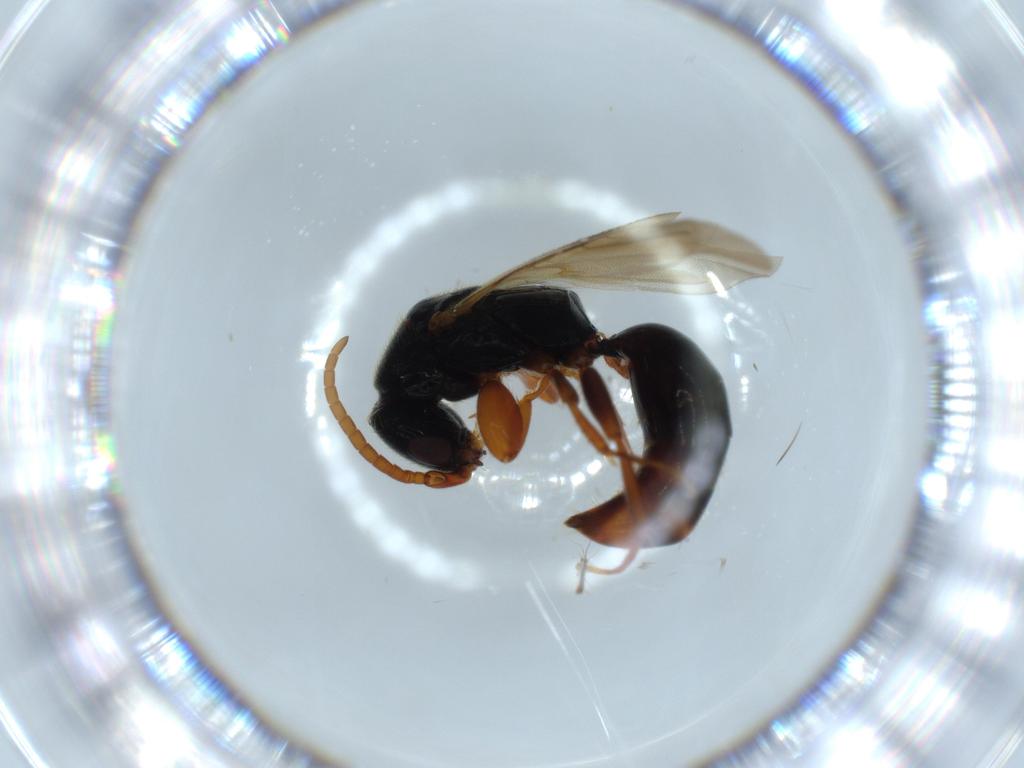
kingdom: Animalia
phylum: Arthropoda
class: Insecta
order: Hymenoptera
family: Bethylidae
